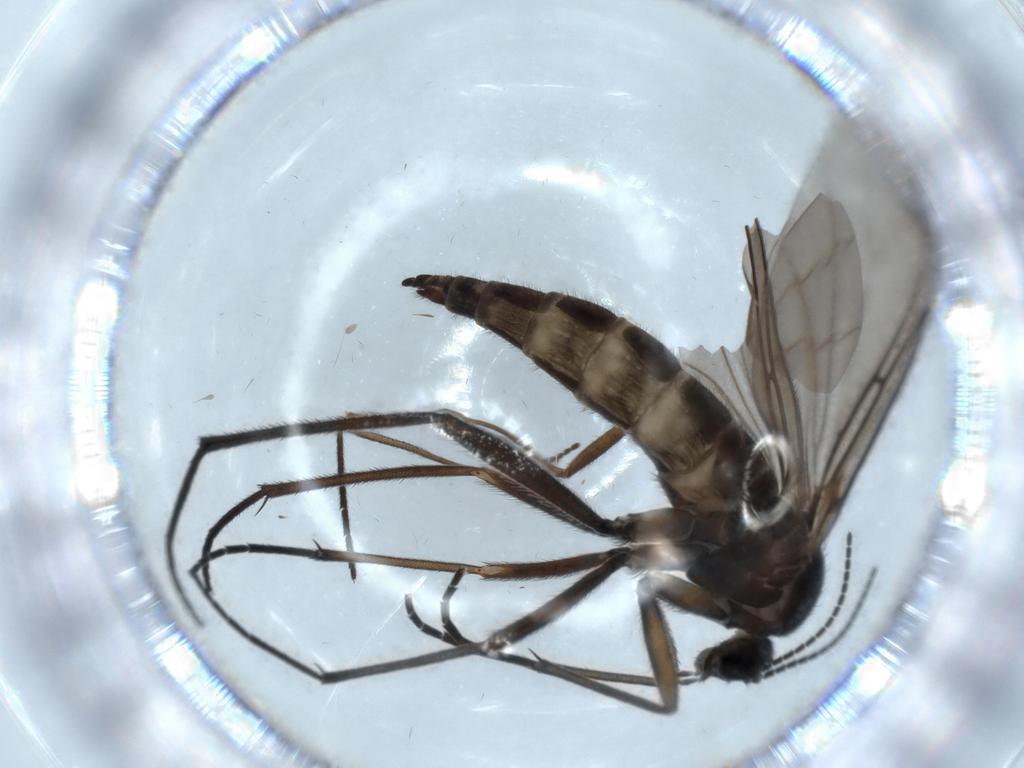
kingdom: Animalia
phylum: Arthropoda
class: Insecta
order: Diptera
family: Sciaridae
